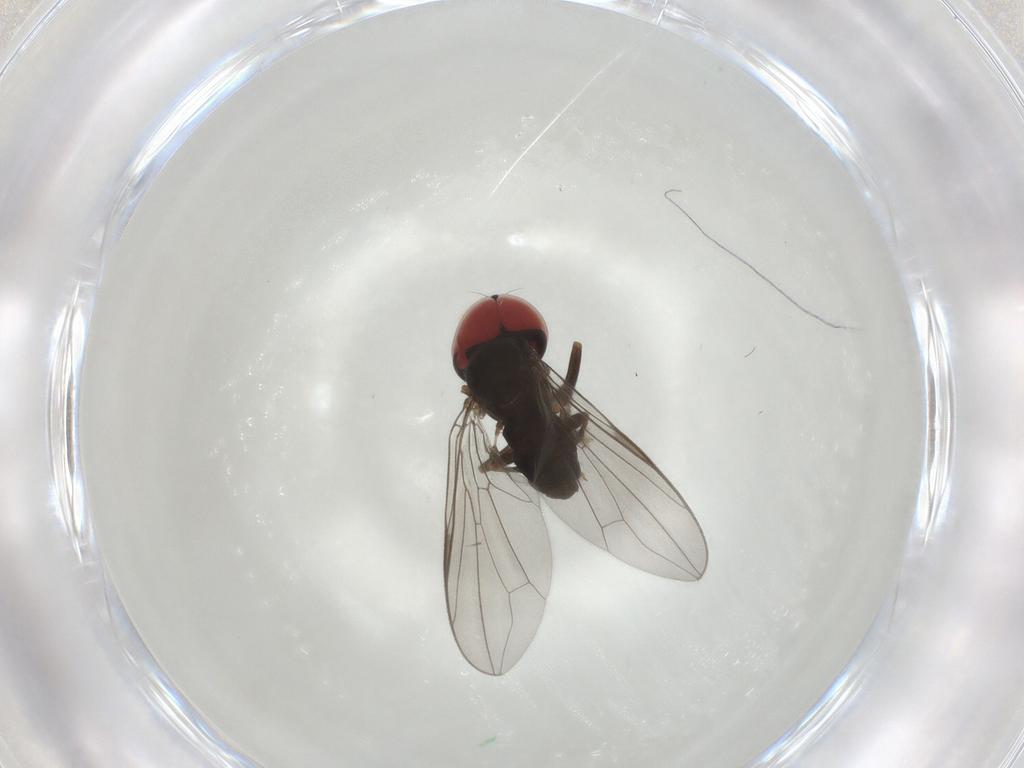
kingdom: Animalia
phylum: Arthropoda
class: Insecta
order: Diptera
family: Pipunculidae
